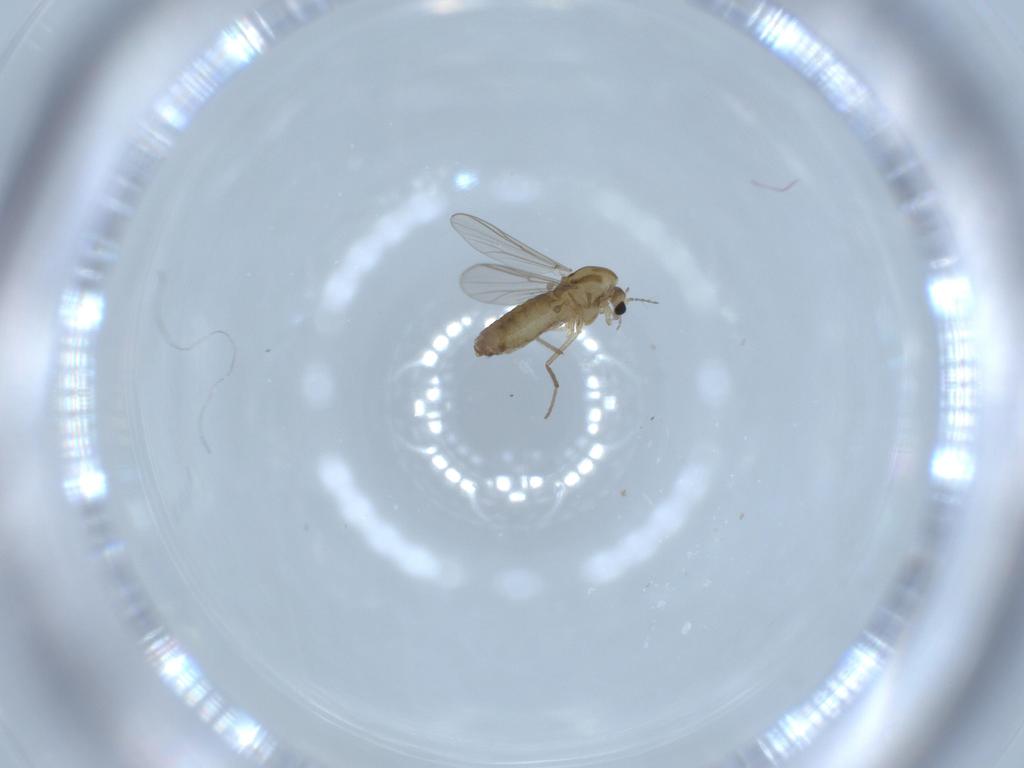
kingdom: Animalia
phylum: Arthropoda
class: Insecta
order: Diptera
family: Chironomidae
